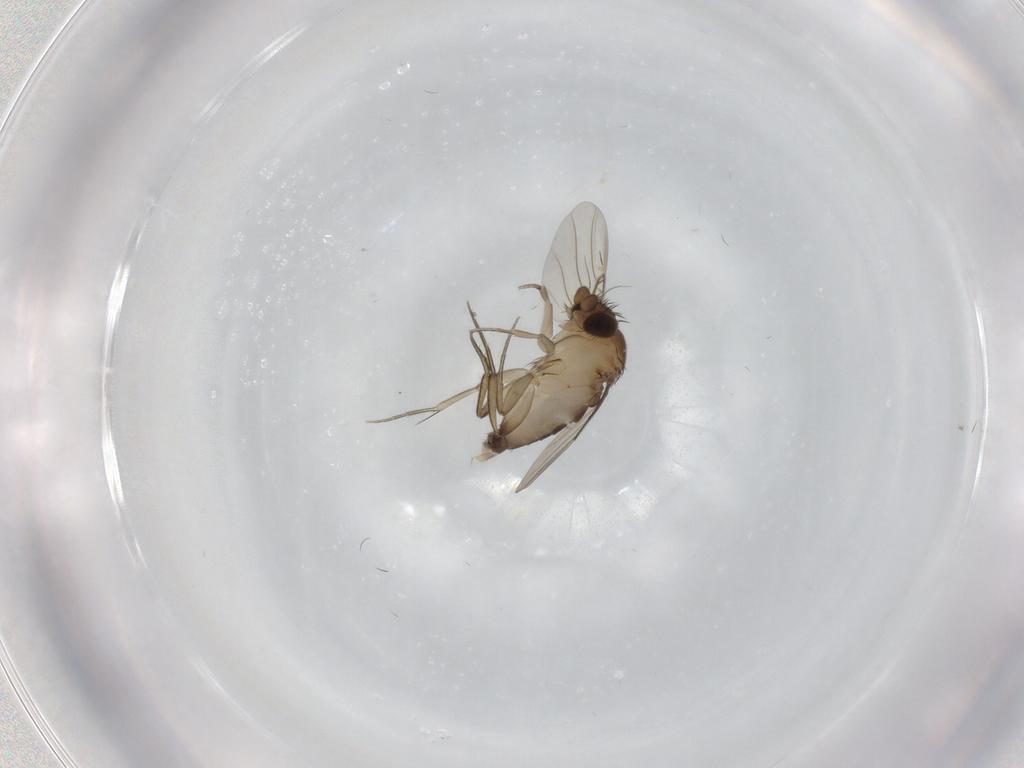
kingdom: Animalia
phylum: Arthropoda
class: Insecta
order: Diptera
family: Phoridae
